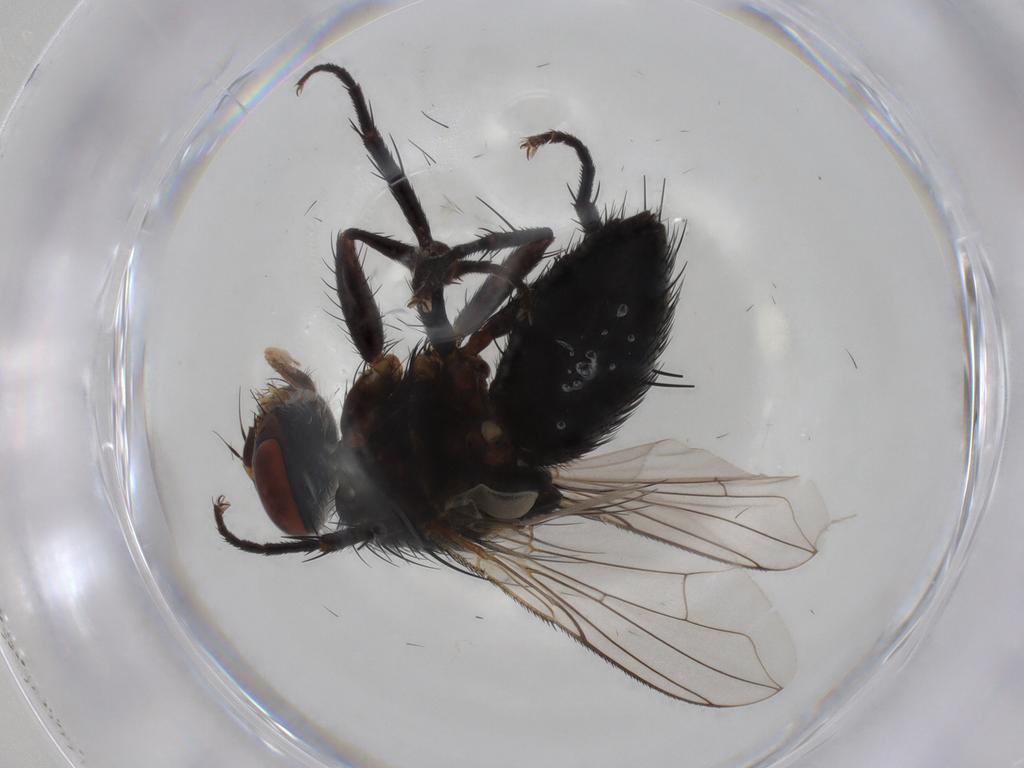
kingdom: Animalia
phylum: Arthropoda
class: Insecta
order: Diptera
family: Tachinidae
